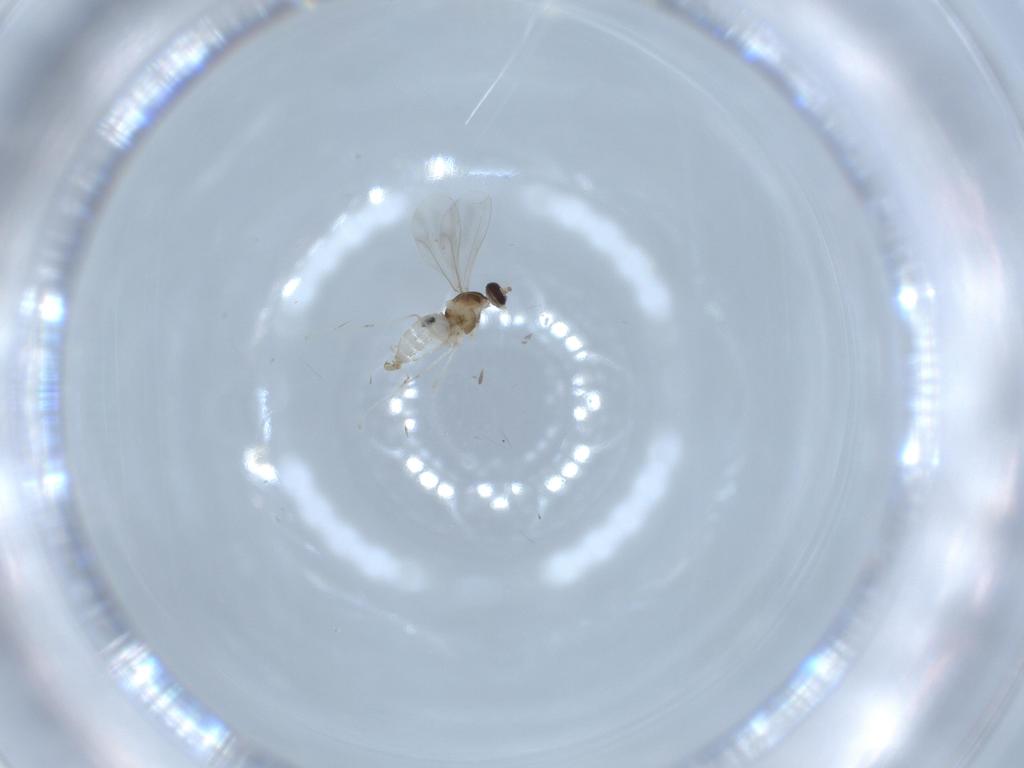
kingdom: Animalia
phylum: Arthropoda
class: Insecta
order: Diptera
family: Cecidomyiidae
